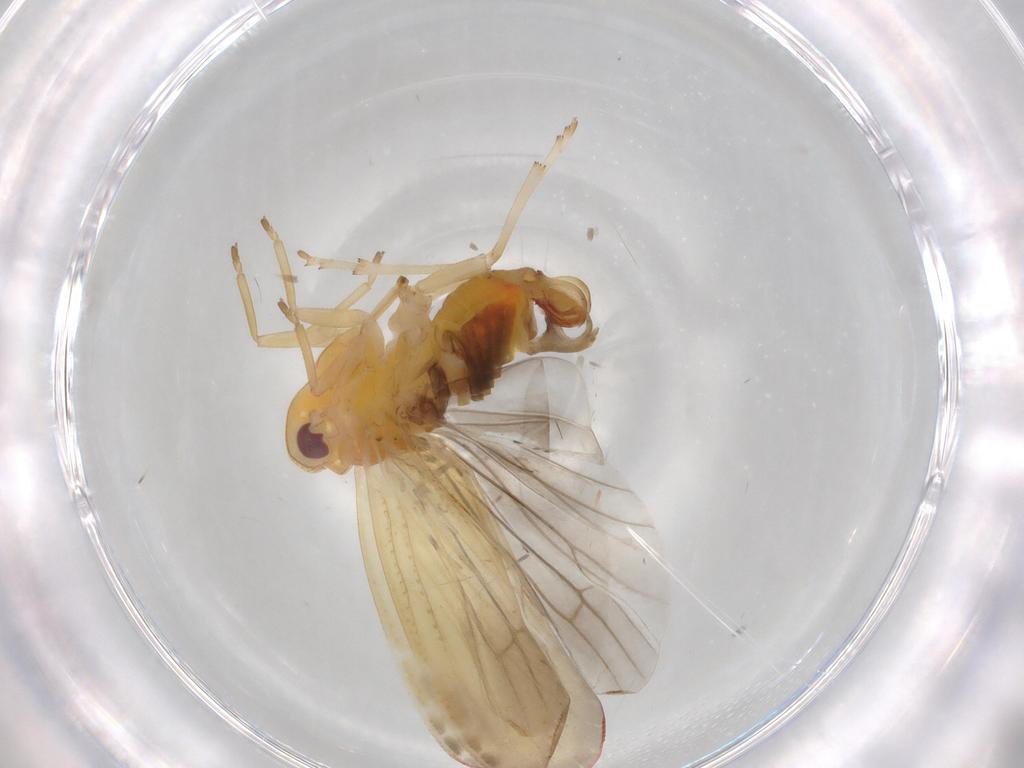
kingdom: Animalia
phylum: Arthropoda
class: Insecta
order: Hemiptera
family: Derbidae
